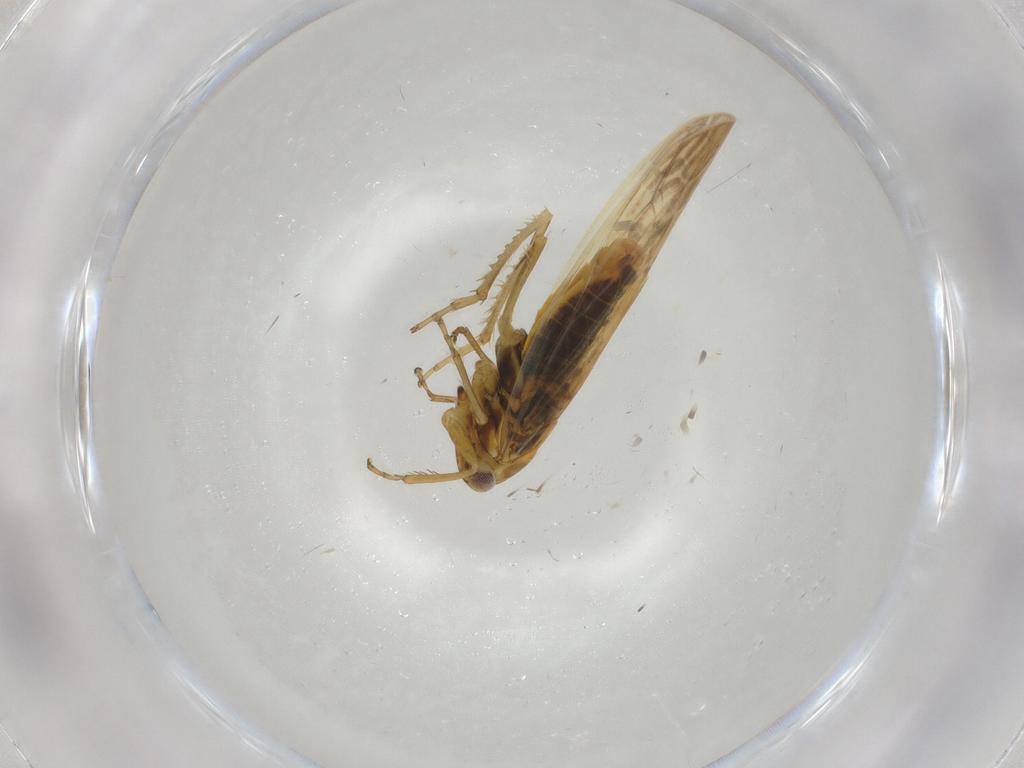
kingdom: Animalia
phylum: Arthropoda
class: Insecta
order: Hemiptera
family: Cicadellidae
